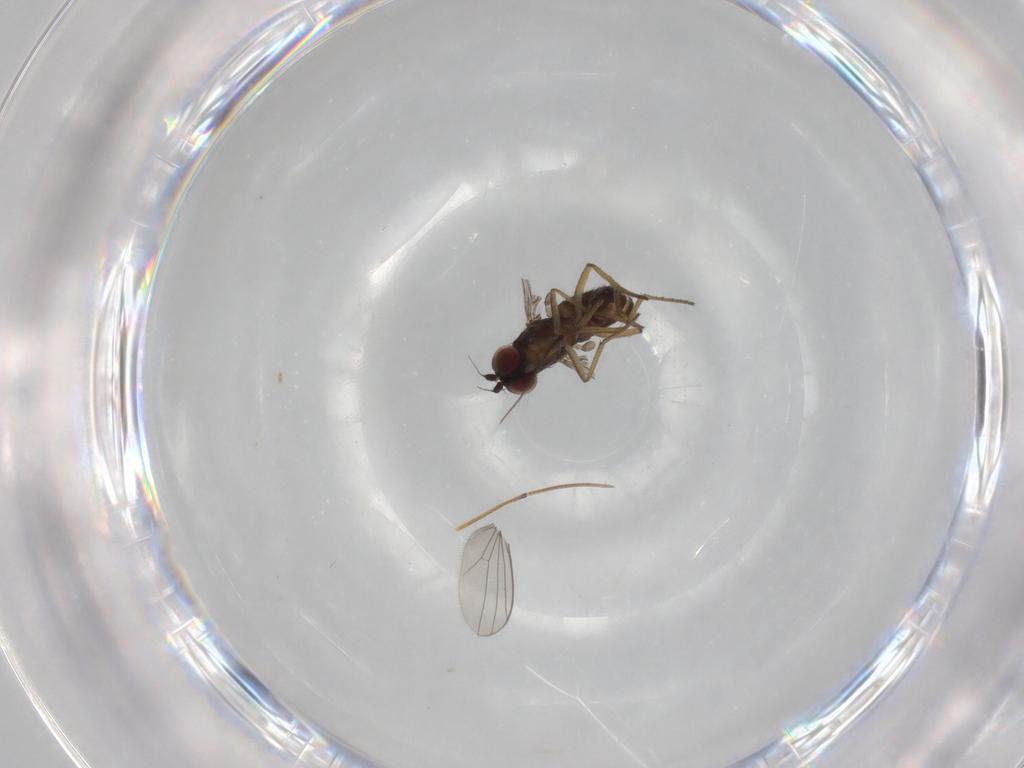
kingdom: Animalia
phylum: Arthropoda
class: Insecta
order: Diptera
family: Dolichopodidae
